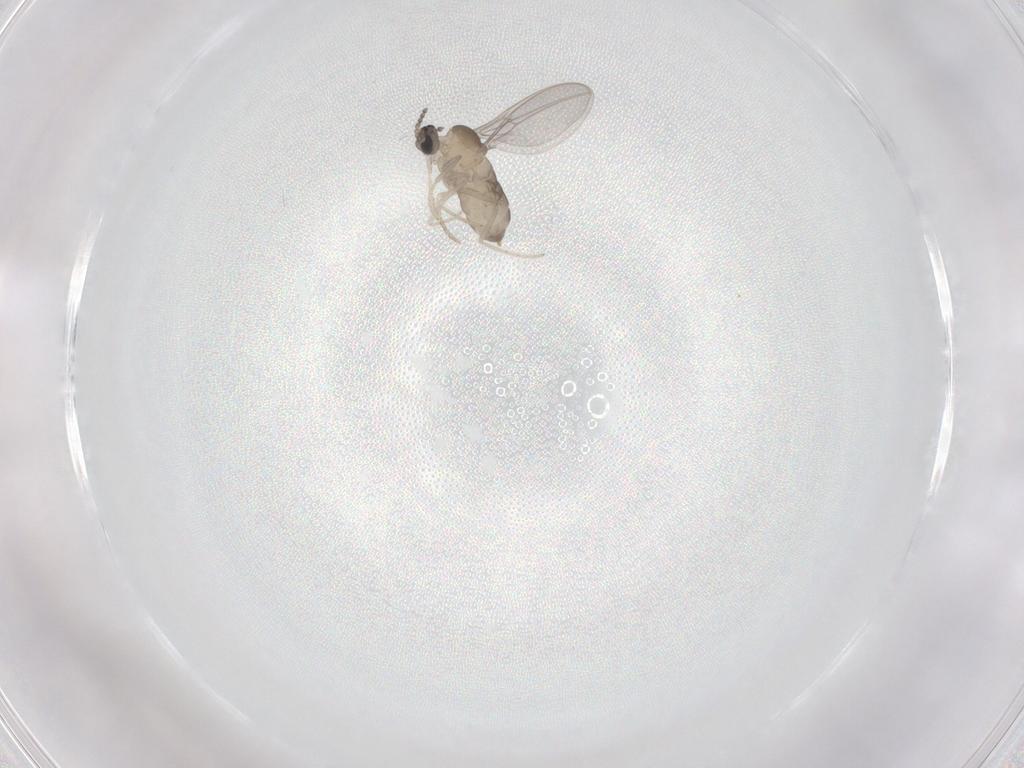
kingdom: Animalia
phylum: Arthropoda
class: Insecta
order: Diptera
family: Cecidomyiidae
